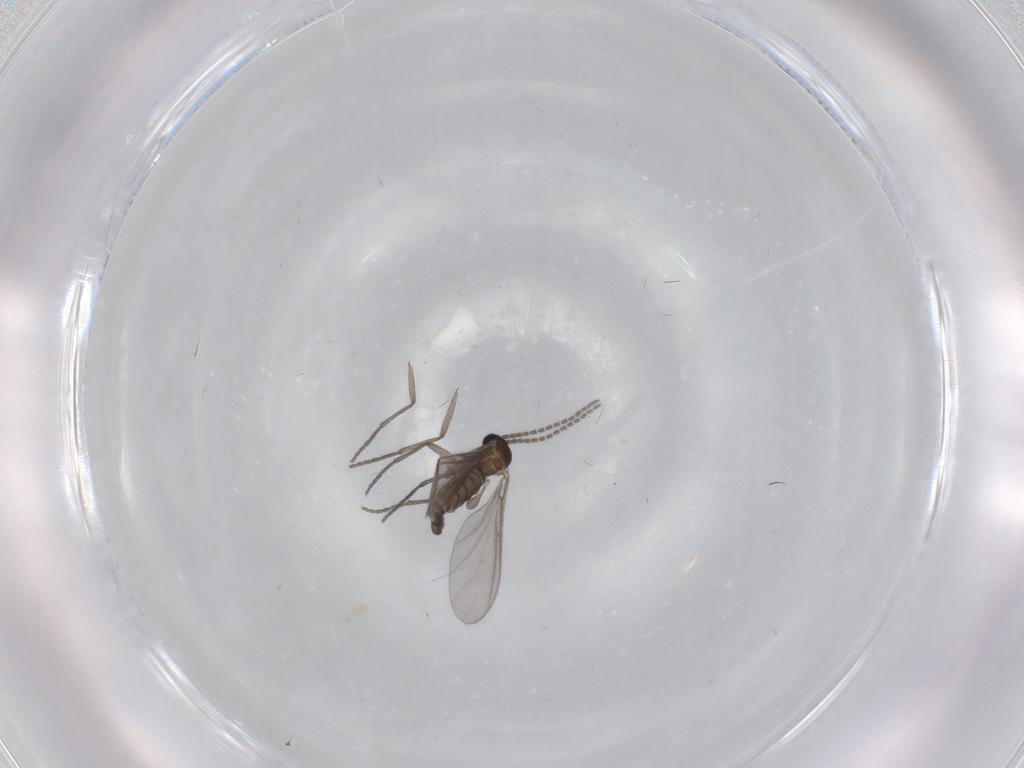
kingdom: Animalia
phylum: Arthropoda
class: Insecta
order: Diptera
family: Sciaridae
